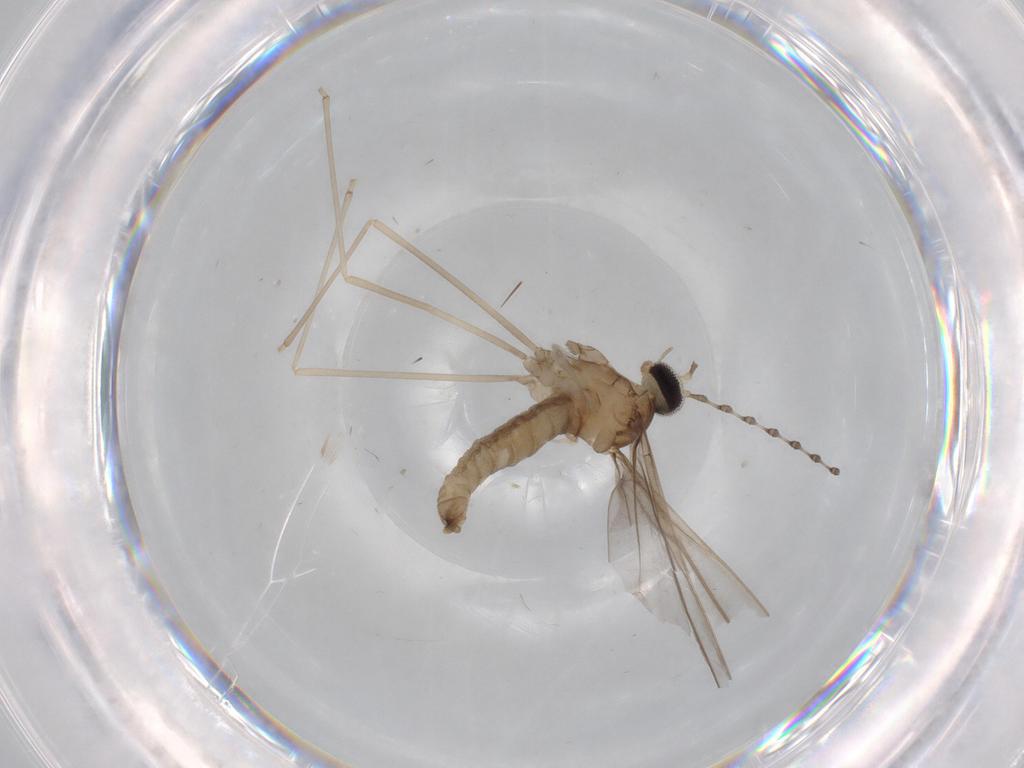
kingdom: Animalia
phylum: Arthropoda
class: Insecta
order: Diptera
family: Cecidomyiidae
